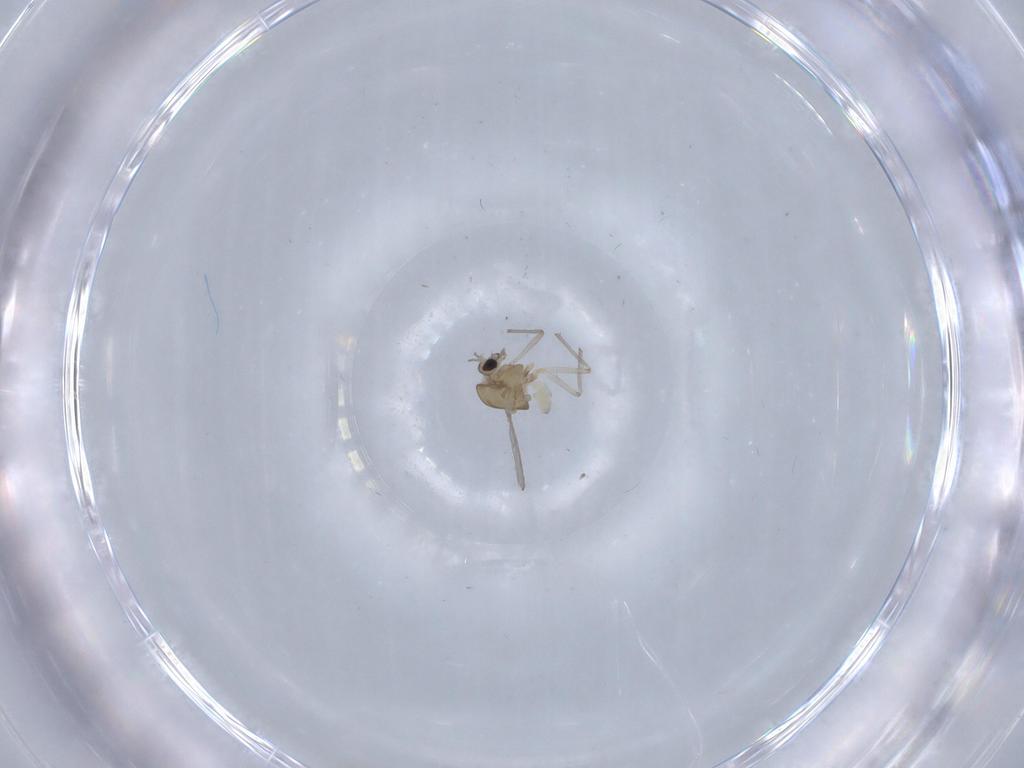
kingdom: Animalia
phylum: Arthropoda
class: Insecta
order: Diptera
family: Chironomidae
